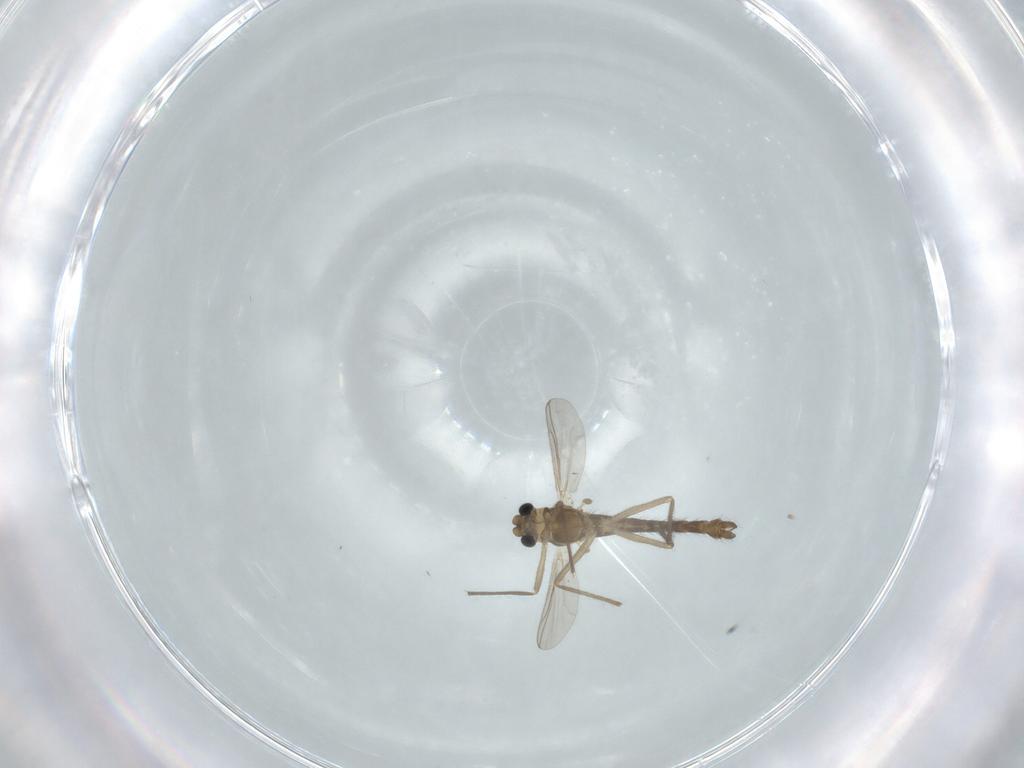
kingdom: Animalia
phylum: Arthropoda
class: Insecta
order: Diptera
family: Chironomidae
